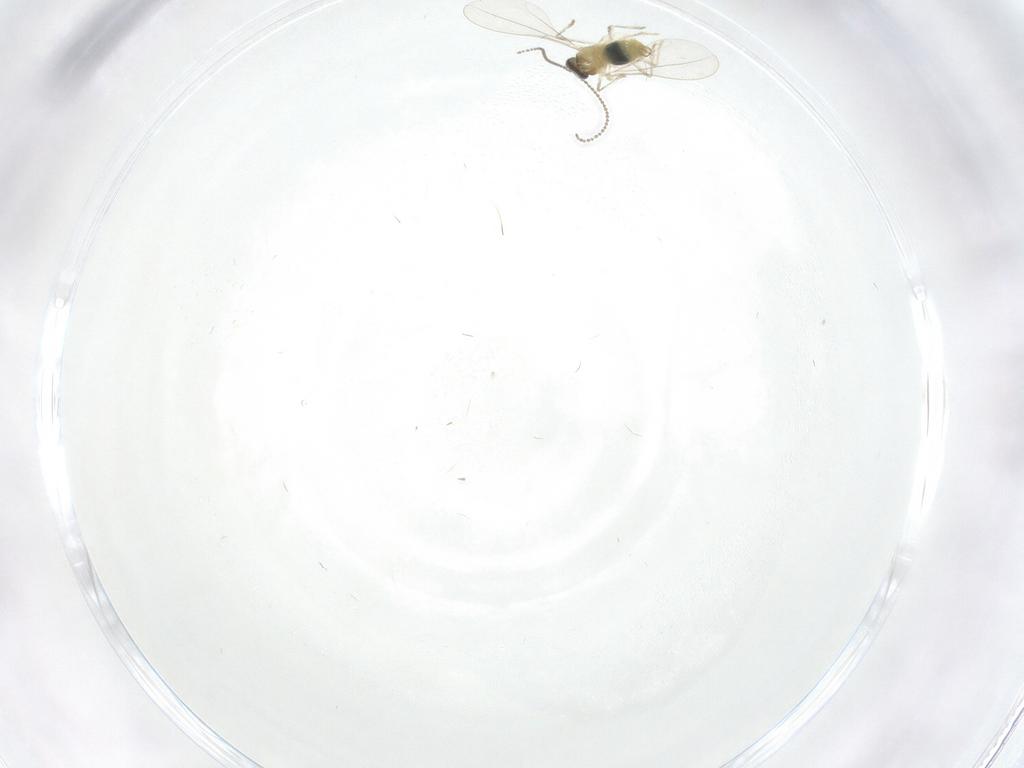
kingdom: Animalia
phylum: Arthropoda
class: Insecta
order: Diptera
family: Cecidomyiidae
